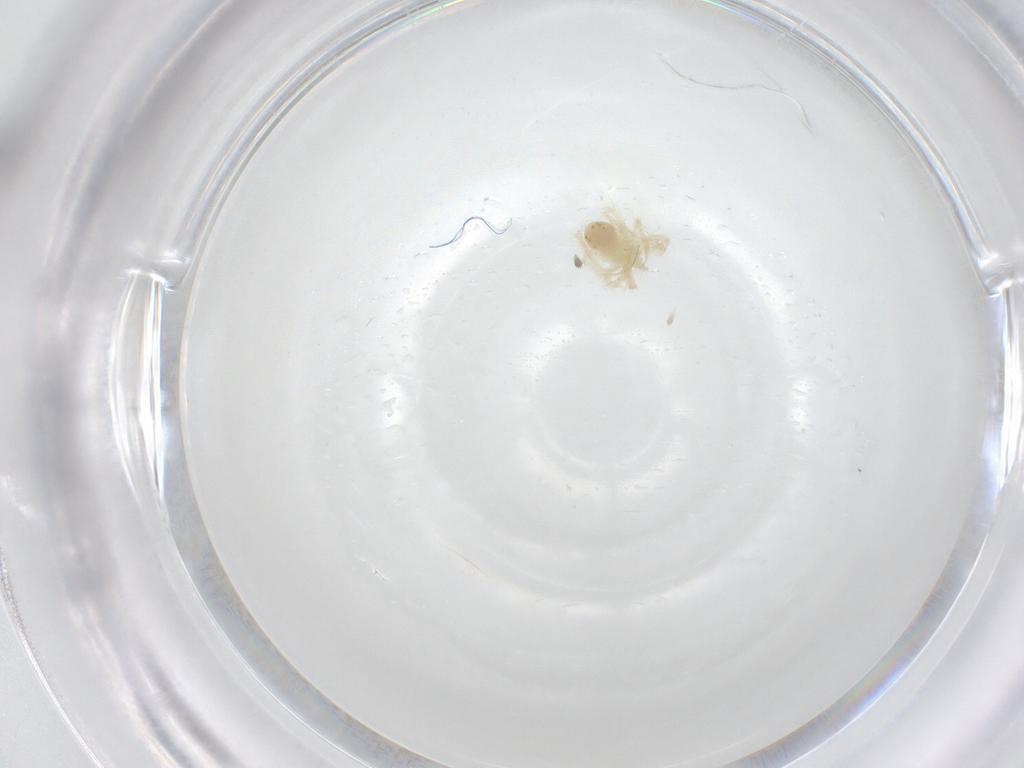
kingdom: Animalia
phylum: Arthropoda
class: Arachnida
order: Trombidiformes
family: Anystidae
